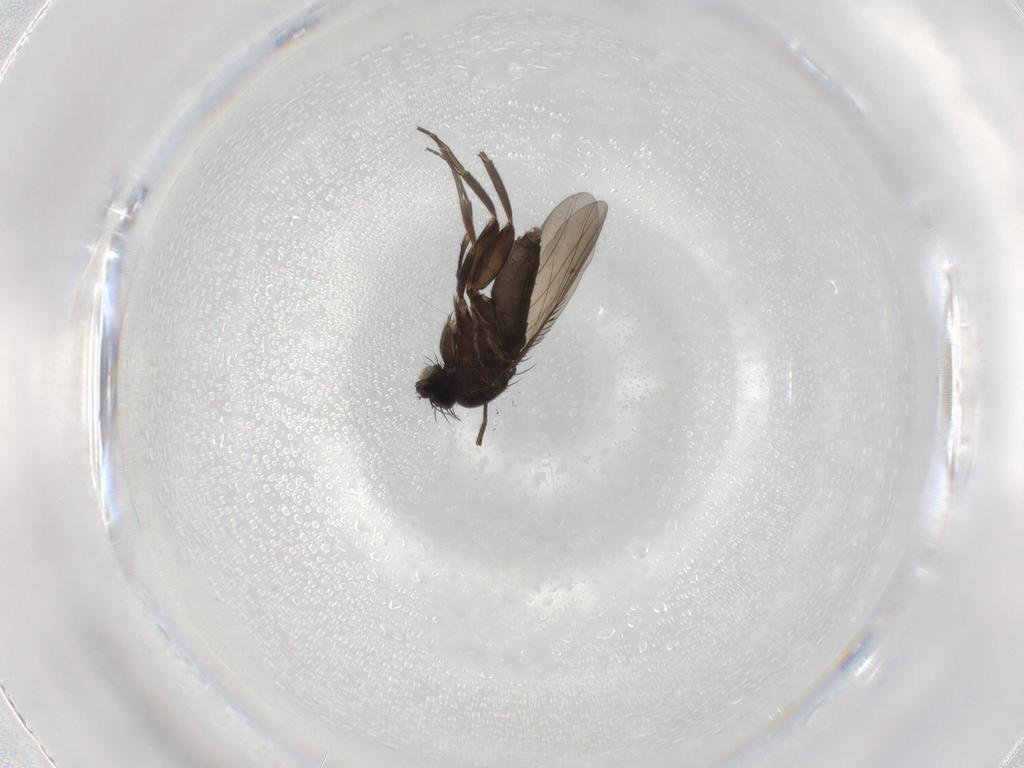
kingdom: Animalia
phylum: Arthropoda
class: Insecta
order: Diptera
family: Phoridae
